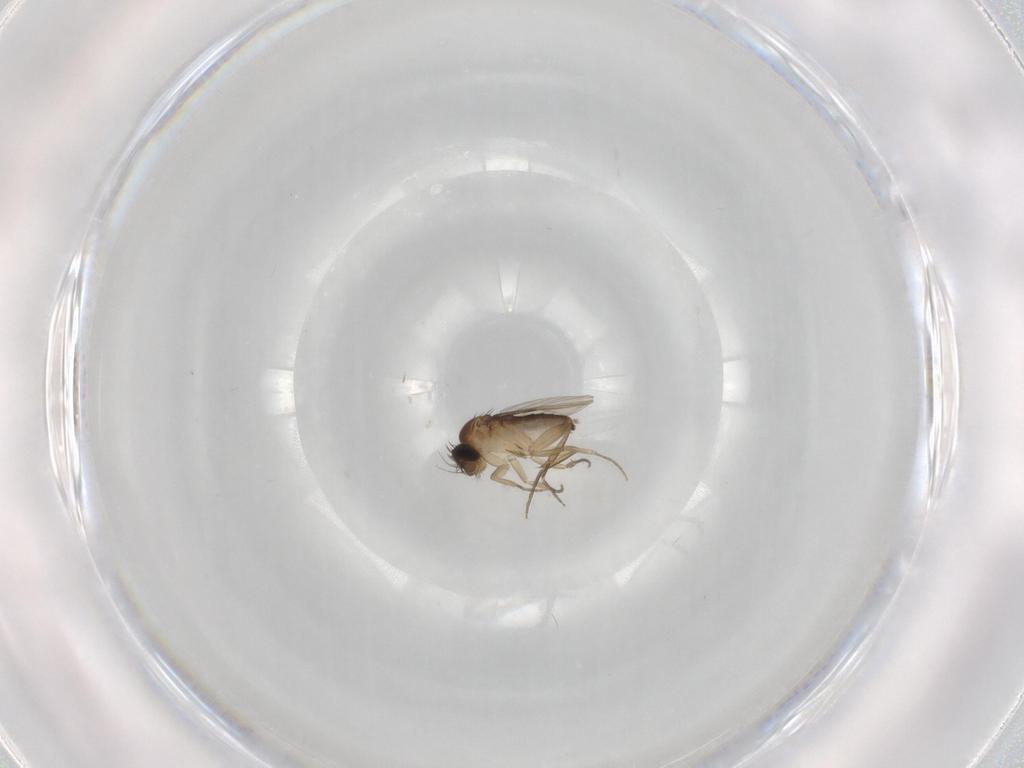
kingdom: Animalia
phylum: Arthropoda
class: Insecta
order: Diptera
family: Phoridae
